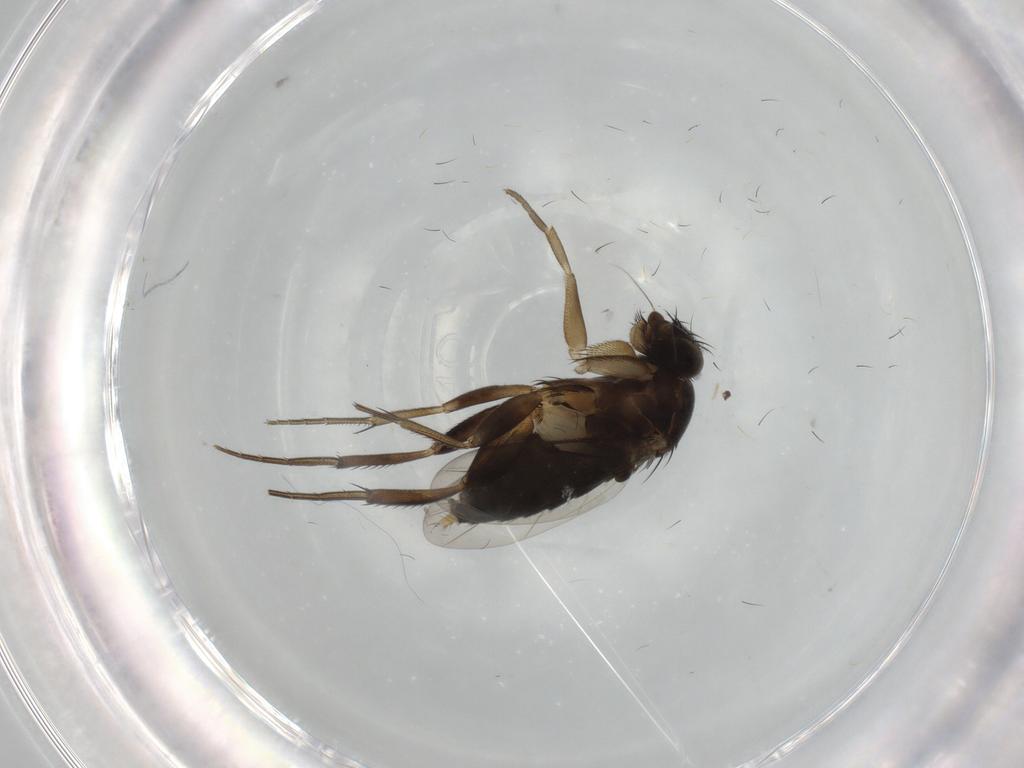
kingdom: Animalia
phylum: Arthropoda
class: Insecta
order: Diptera
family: Phoridae
